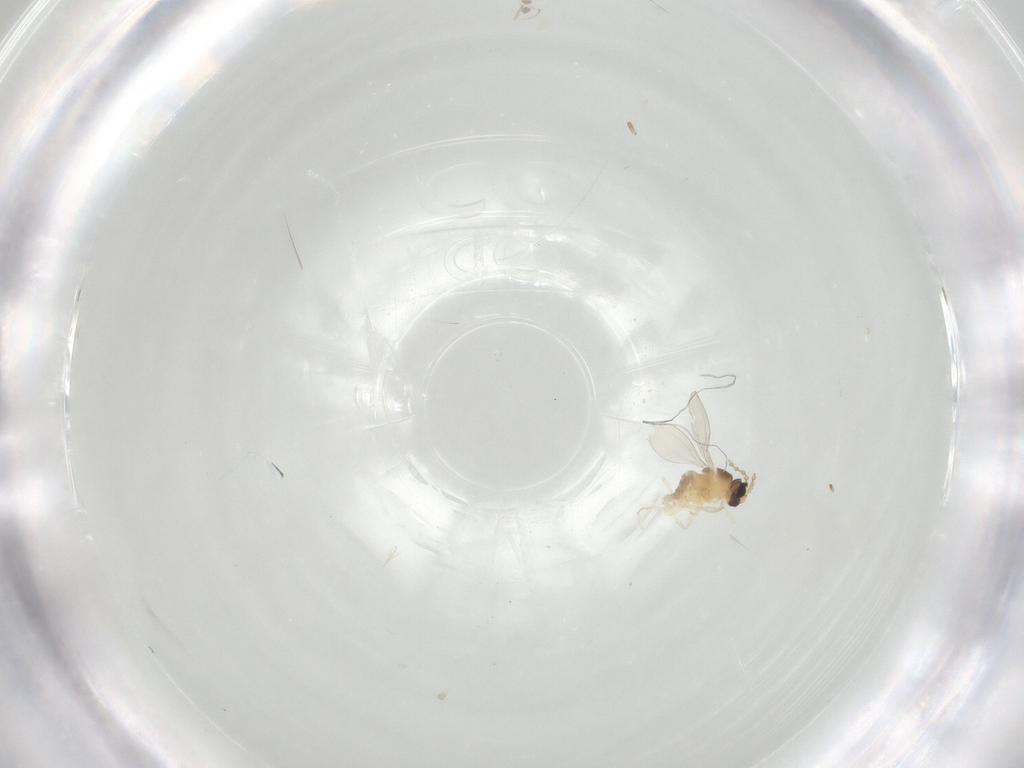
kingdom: Animalia
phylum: Arthropoda
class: Insecta
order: Diptera
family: Cecidomyiidae
